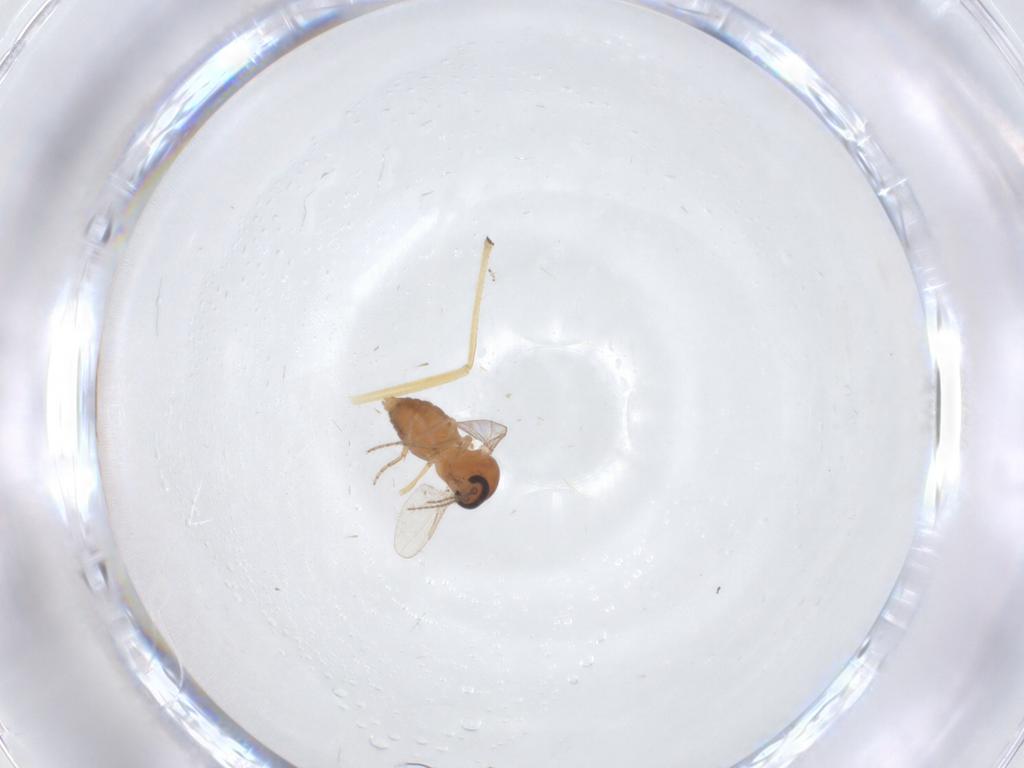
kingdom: Animalia
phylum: Arthropoda
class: Insecta
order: Diptera
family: Ceratopogonidae
